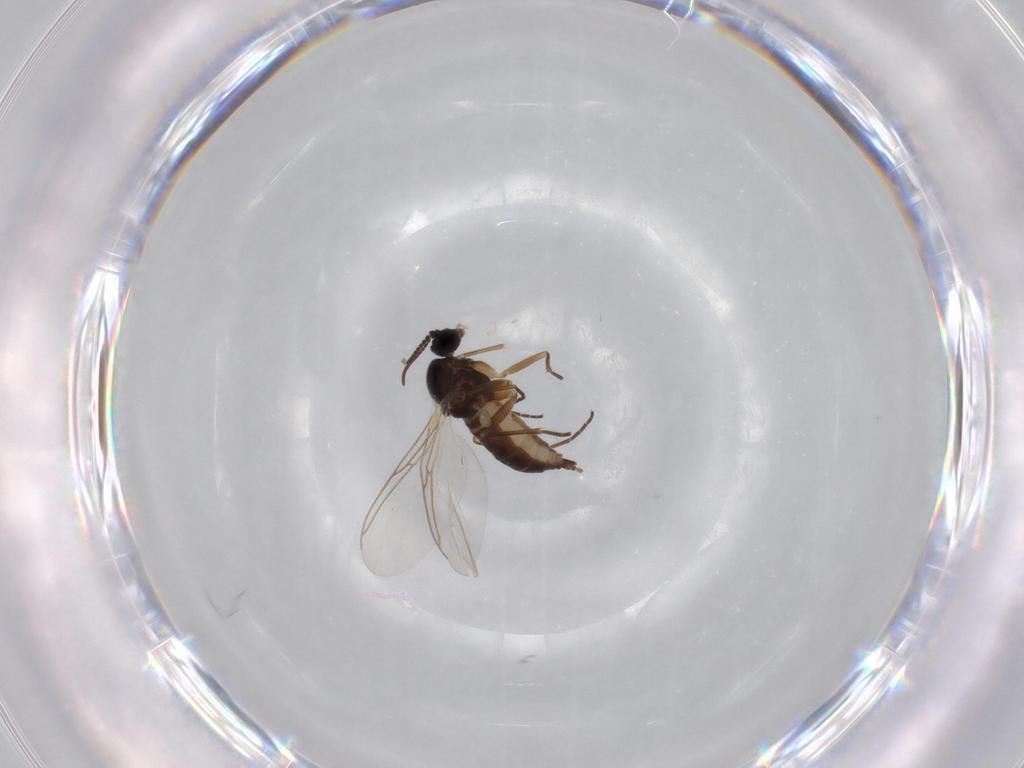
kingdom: Animalia
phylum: Arthropoda
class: Insecta
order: Diptera
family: Sciaridae
